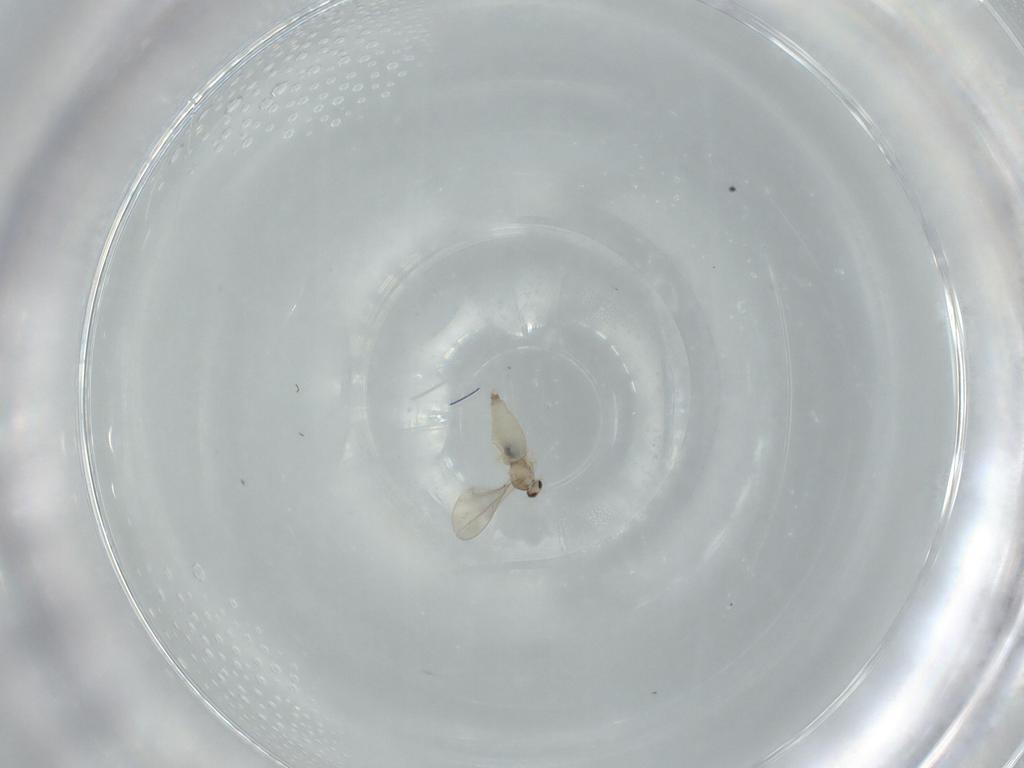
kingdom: Animalia
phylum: Arthropoda
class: Insecta
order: Diptera
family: Cecidomyiidae
